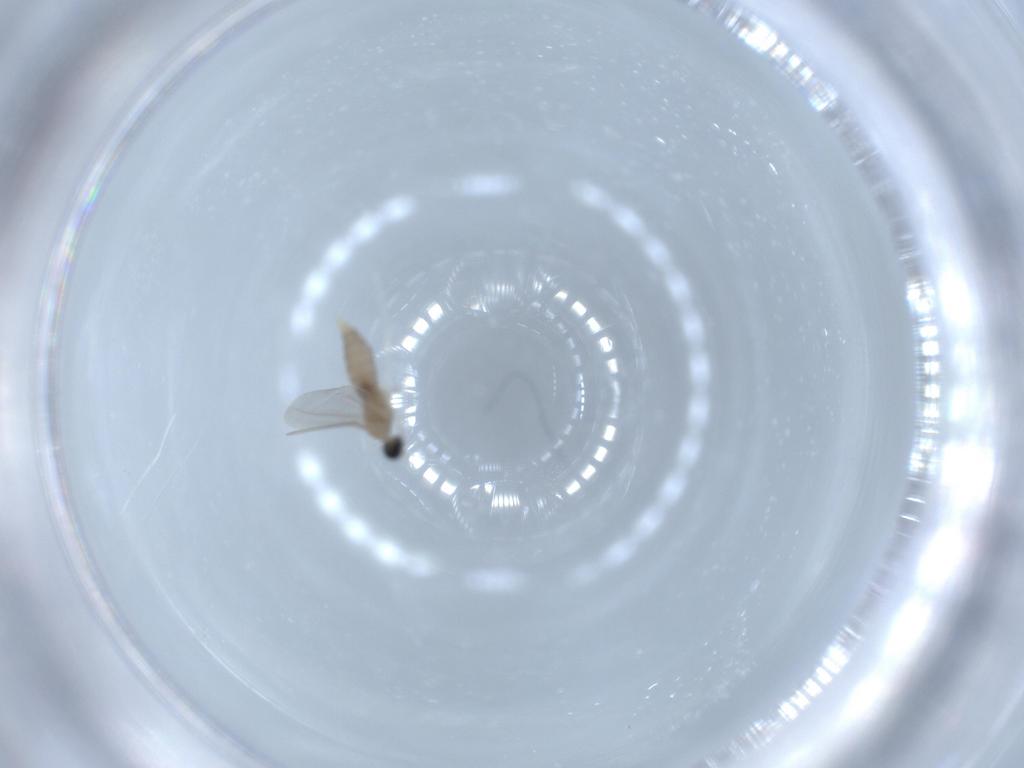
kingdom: Animalia
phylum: Arthropoda
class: Insecta
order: Diptera
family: Cecidomyiidae
